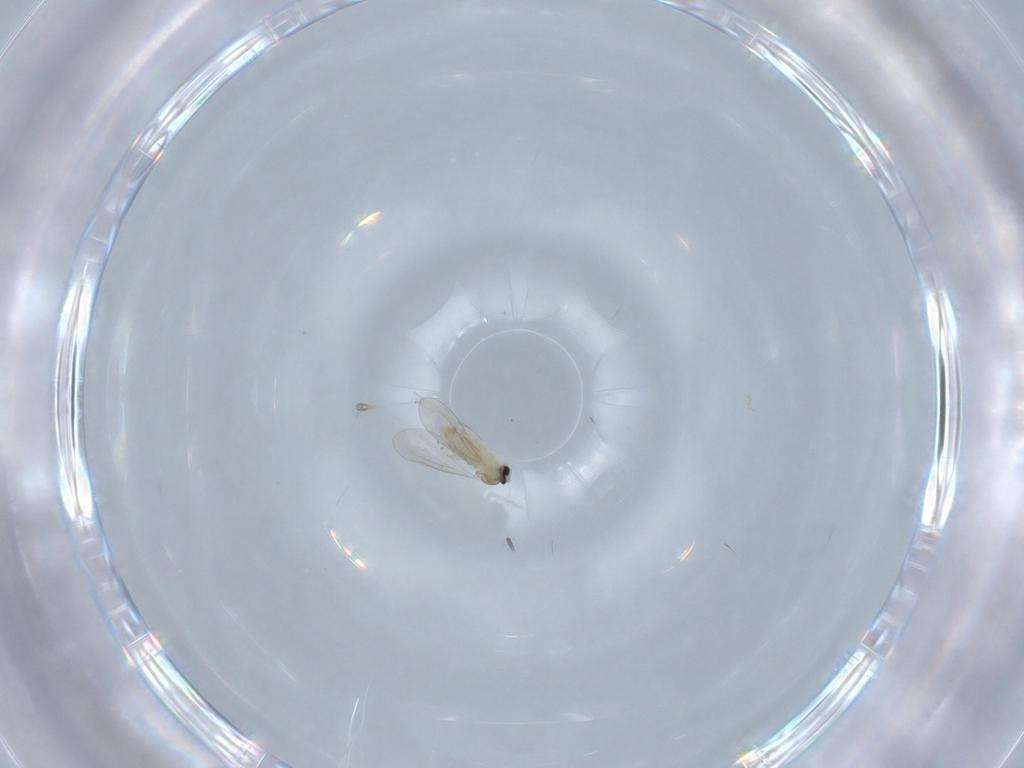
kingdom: Animalia
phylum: Arthropoda
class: Insecta
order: Diptera
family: Cecidomyiidae
